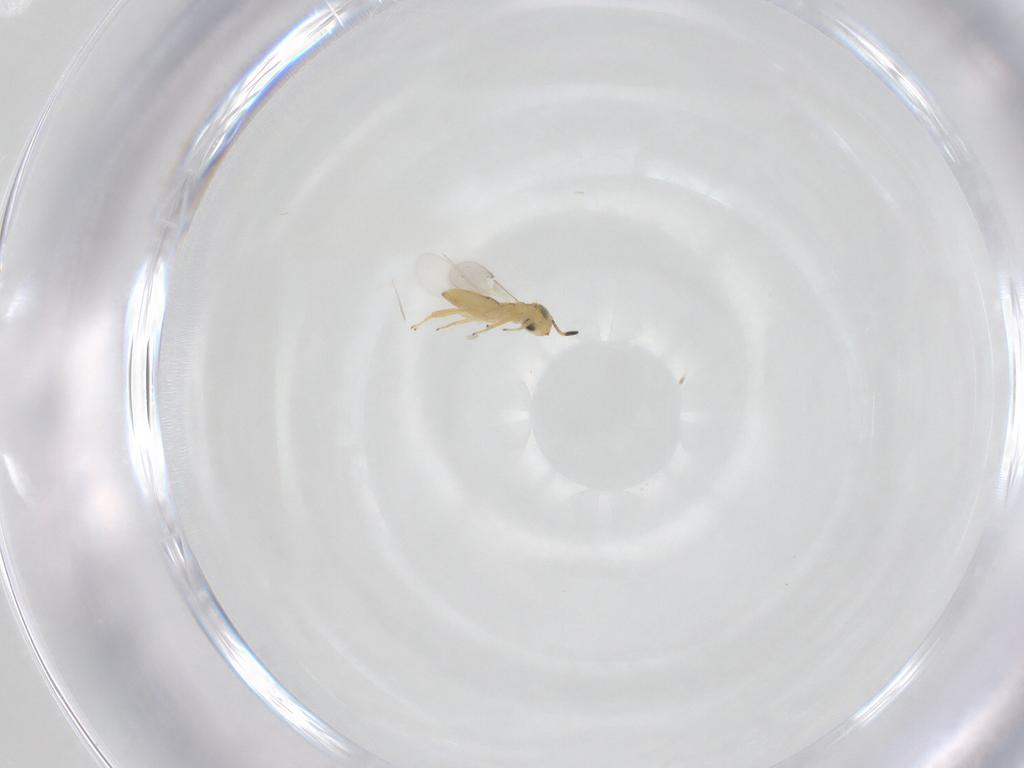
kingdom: Animalia
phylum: Arthropoda
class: Insecta
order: Hymenoptera
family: Encyrtidae
